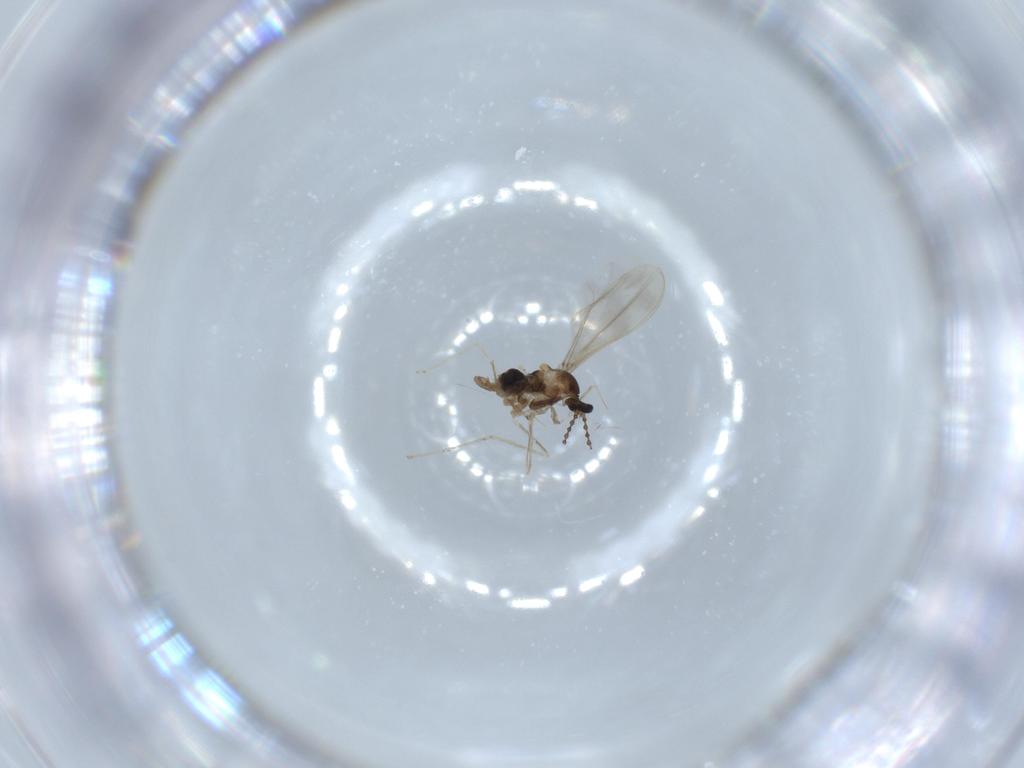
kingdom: Animalia
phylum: Arthropoda
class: Insecta
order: Diptera
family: Cecidomyiidae
